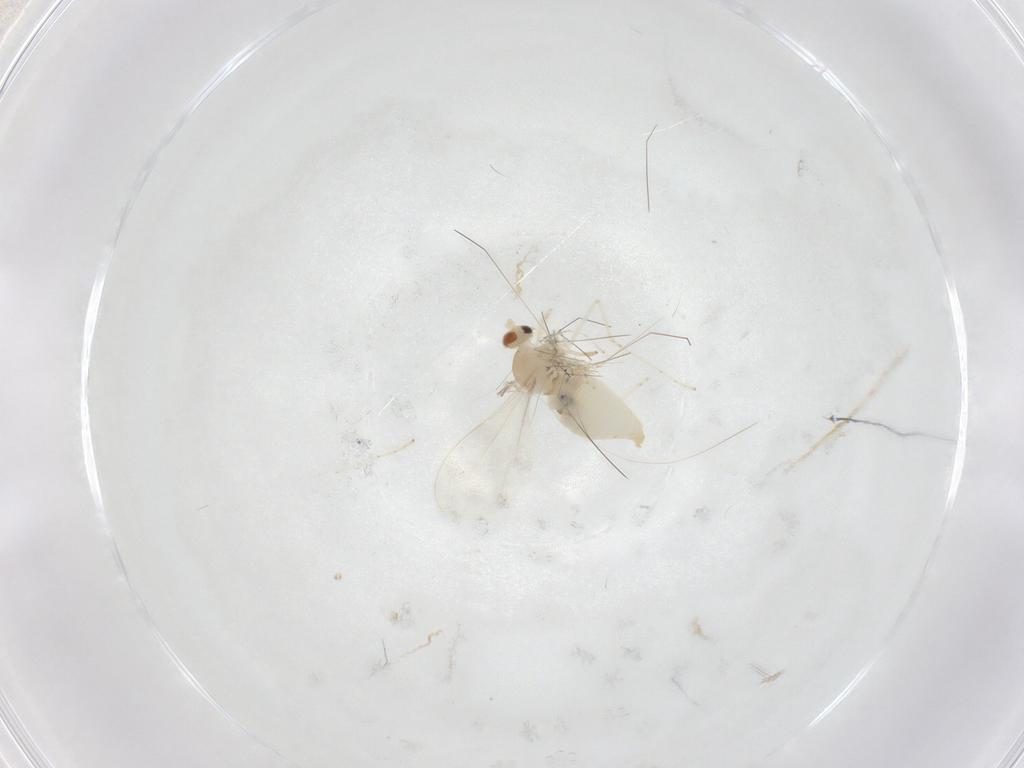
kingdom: Animalia
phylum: Arthropoda
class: Insecta
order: Diptera
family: Cecidomyiidae
